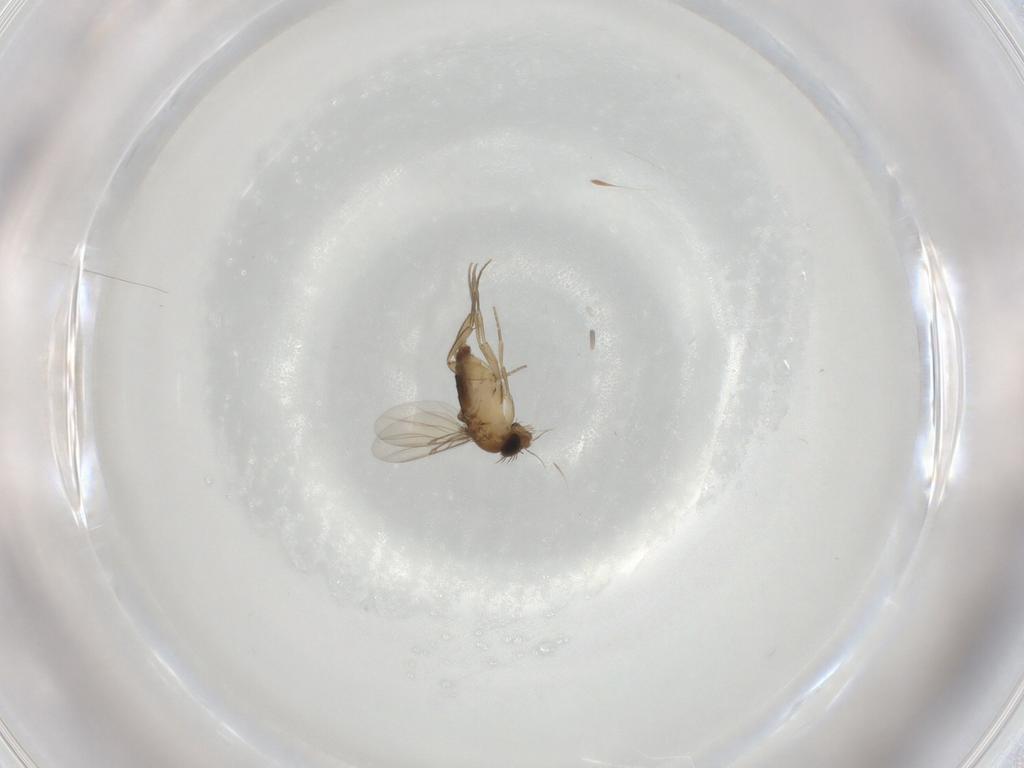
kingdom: Animalia
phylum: Arthropoda
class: Insecta
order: Diptera
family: Phoridae
